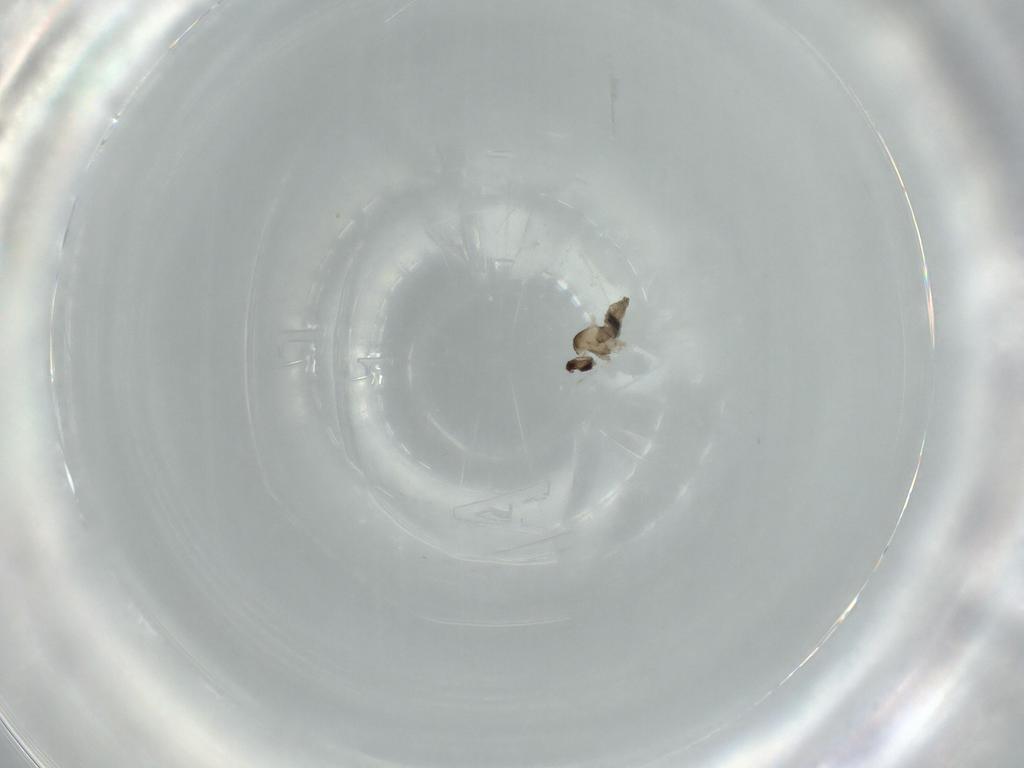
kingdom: Animalia
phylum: Arthropoda
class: Insecta
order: Diptera
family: Cecidomyiidae
